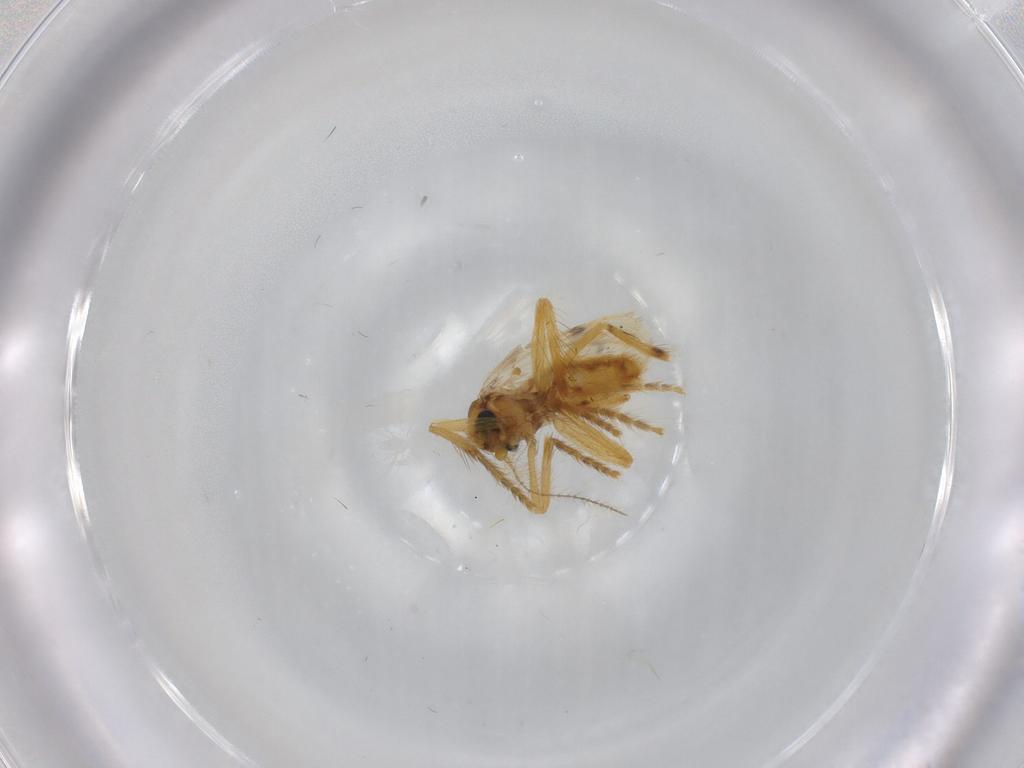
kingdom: Animalia
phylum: Arthropoda
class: Insecta
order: Diptera
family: Corethrellidae
